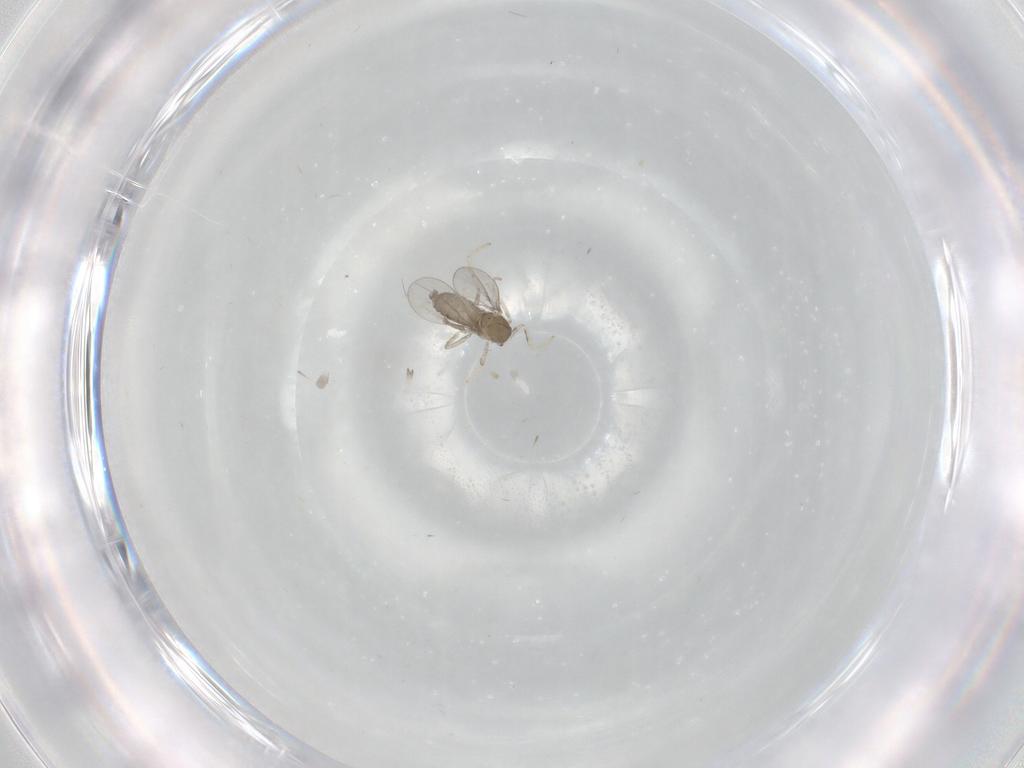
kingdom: Animalia
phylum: Arthropoda
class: Insecta
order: Diptera
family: Cecidomyiidae
